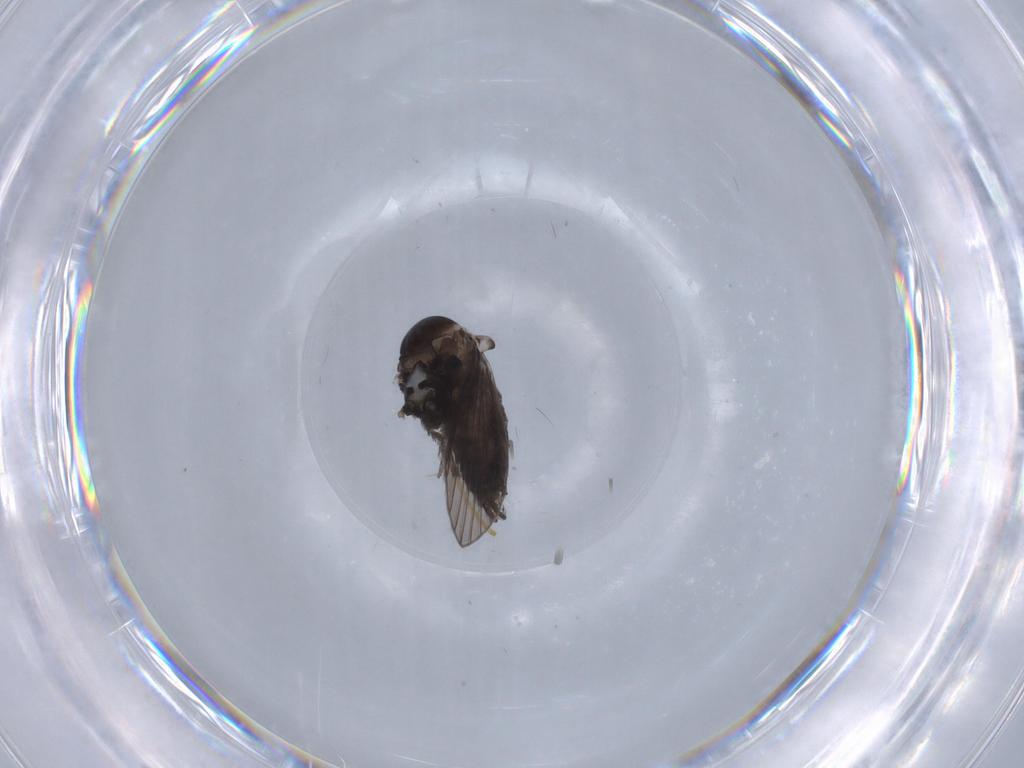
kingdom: Animalia
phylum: Arthropoda
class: Insecta
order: Diptera
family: Psychodidae
